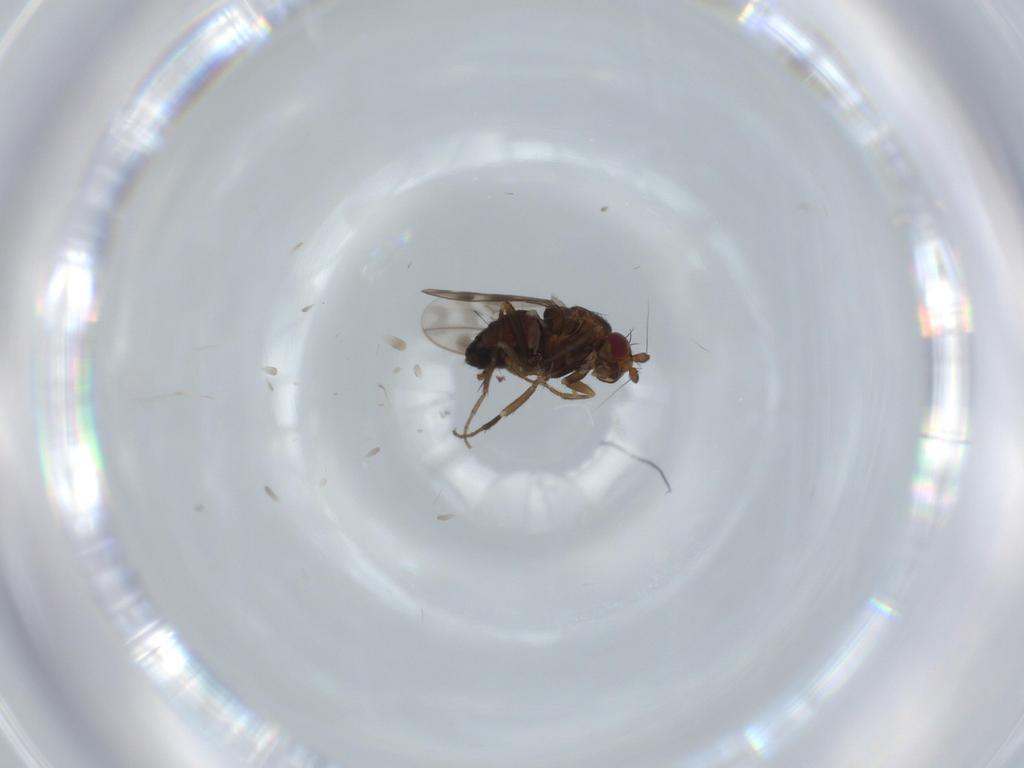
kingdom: Animalia
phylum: Arthropoda
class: Insecta
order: Diptera
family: Sphaeroceridae
